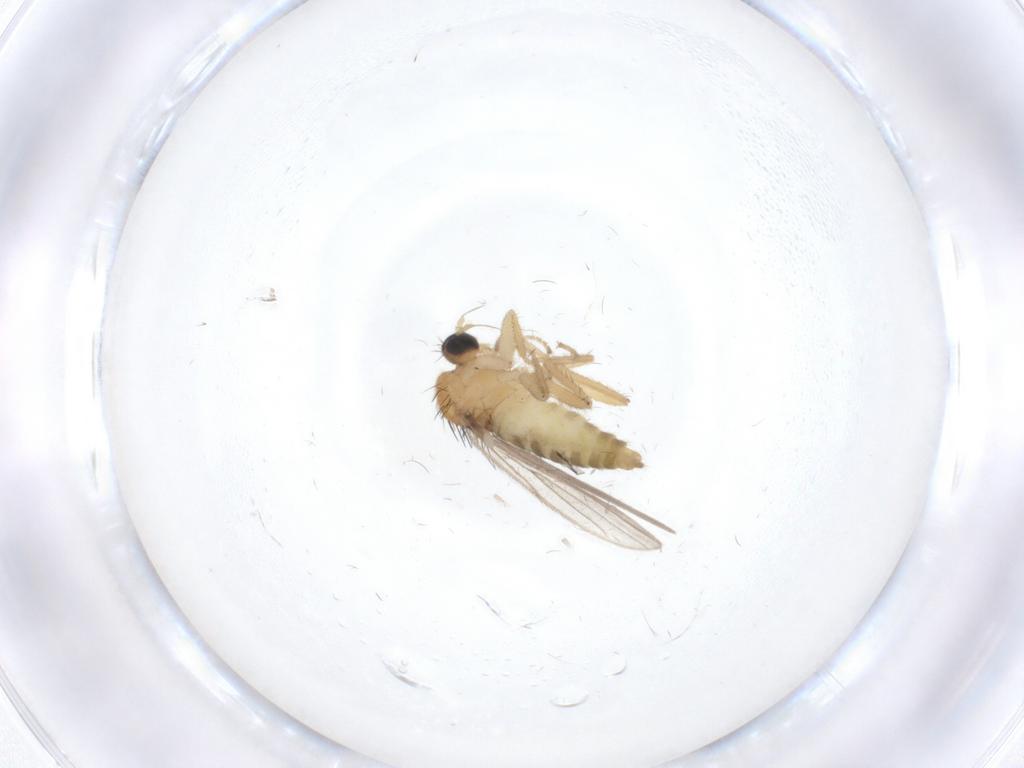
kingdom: Animalia
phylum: Arthropoda
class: Insecta
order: Diptera
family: Hybotidae
